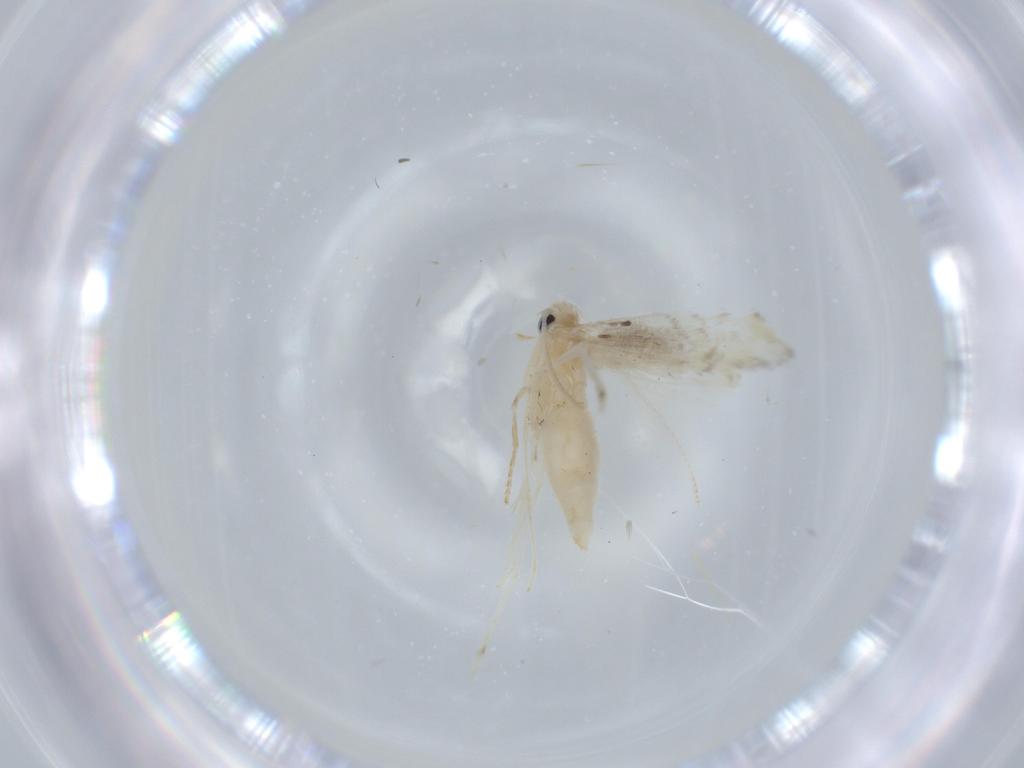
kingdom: Animalia
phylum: Arthropoda
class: Insecta
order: Lepidoptera
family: Gracillariidae
